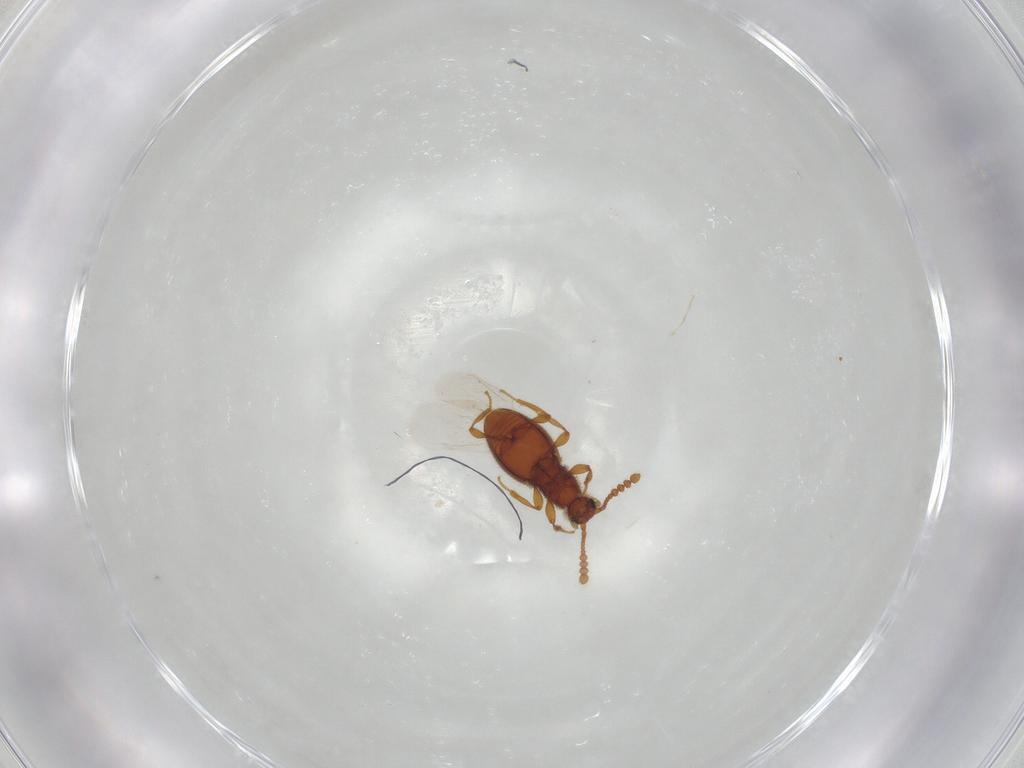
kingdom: Animalia
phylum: Arthropoda
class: Insecta
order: Coleoptera
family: Staphylinidae
